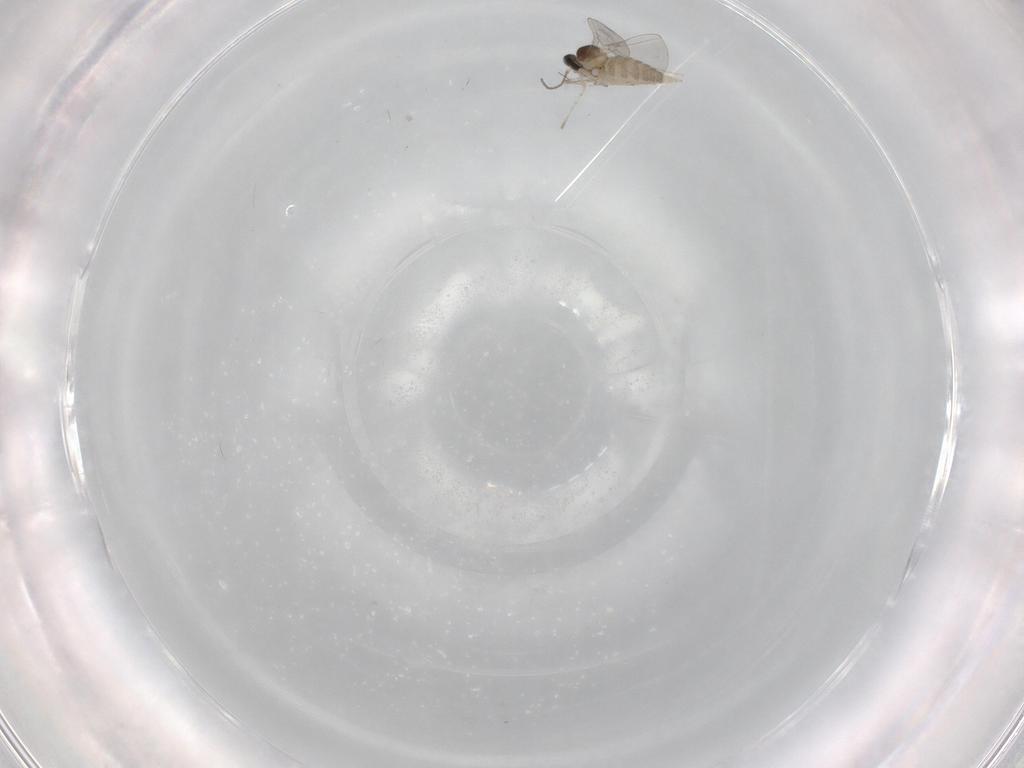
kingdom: Animalia
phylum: Arthropoda
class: Insecta
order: Diptera
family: Cecidomyiidae
